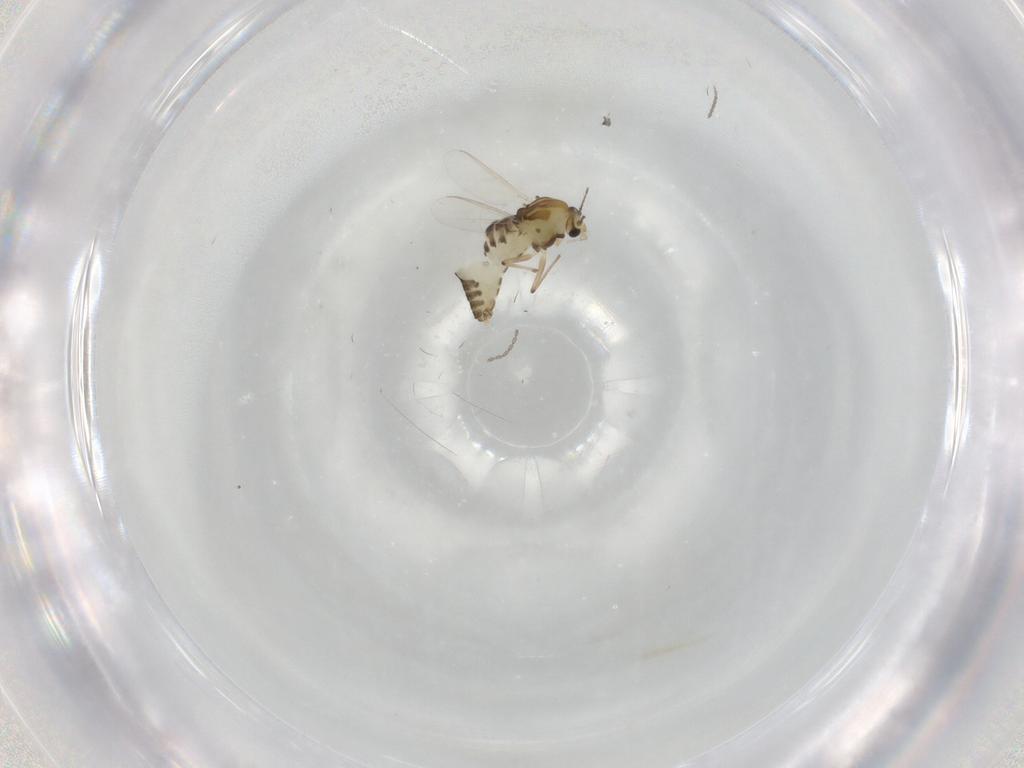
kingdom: Animalia
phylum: Arthropoda
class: Insecta
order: Diptera
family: Chironomidae
